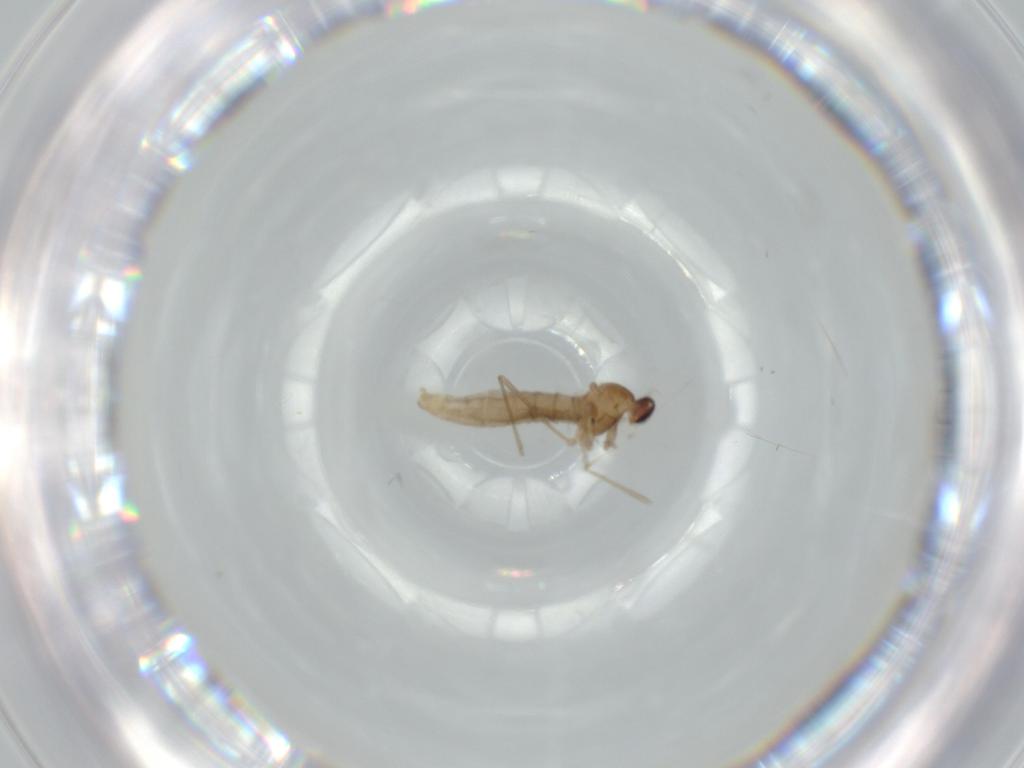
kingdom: Animalia
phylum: Arthropoda
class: Insecta
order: Diptera
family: Cecidomyiidae
